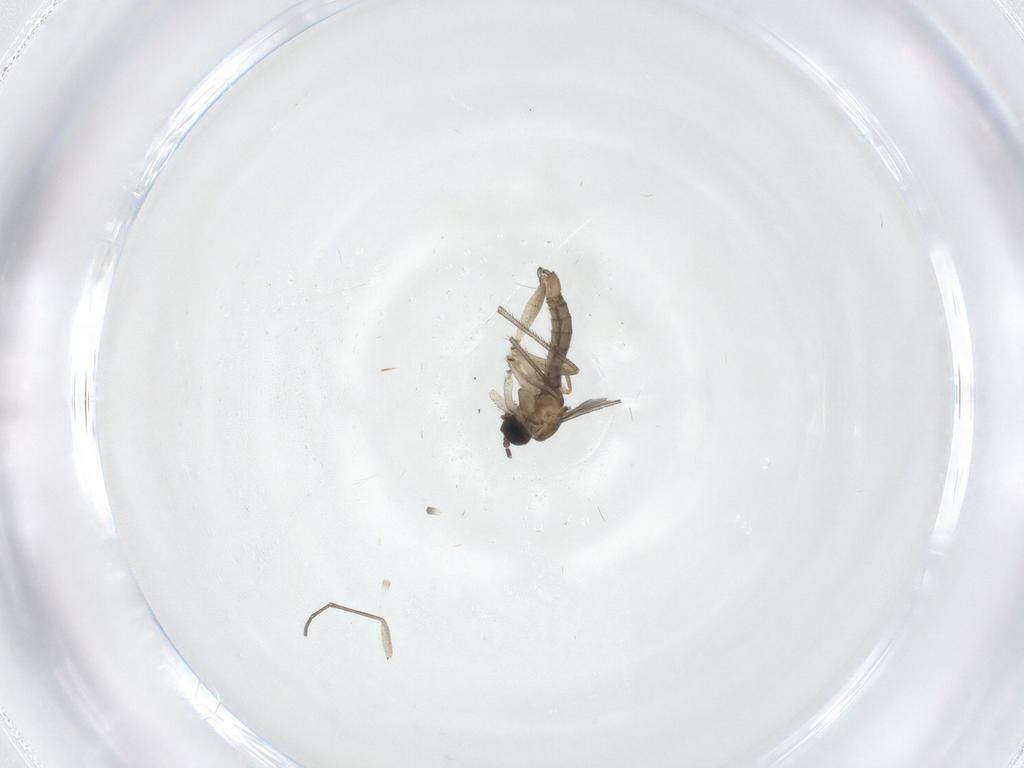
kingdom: Animalia
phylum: Arthropoda
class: Insecta
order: Diptera
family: Sciaridae
